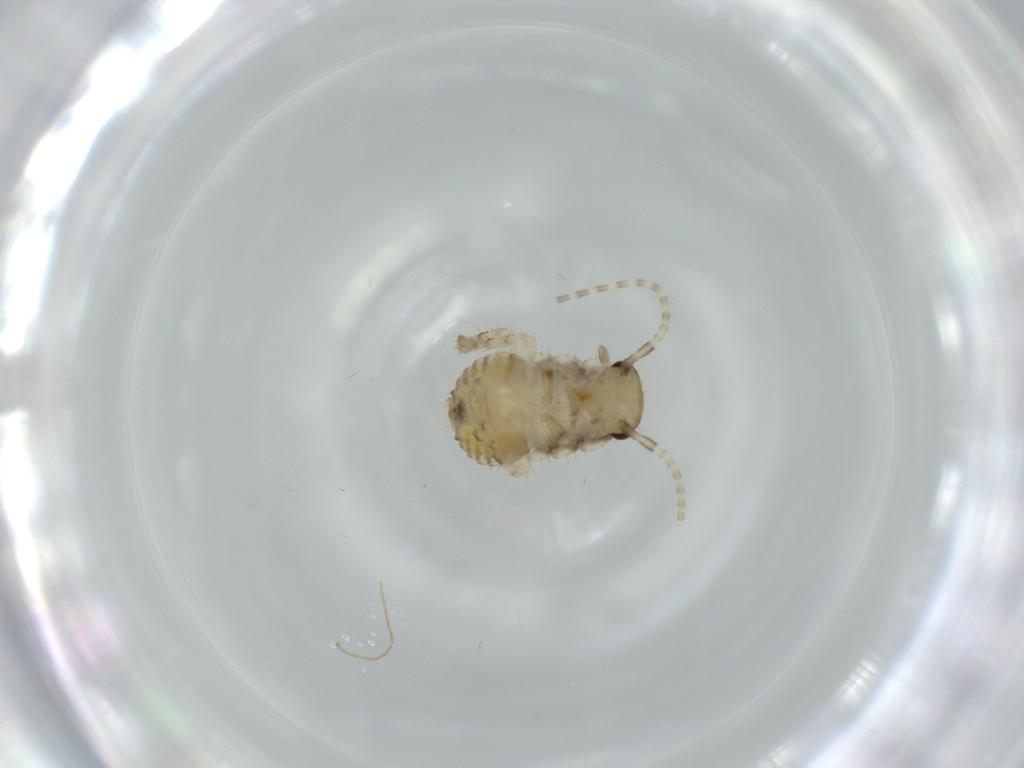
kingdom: Animalia
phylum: Arthropoda
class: Insecta
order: Blattodea
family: Ectobiidae
